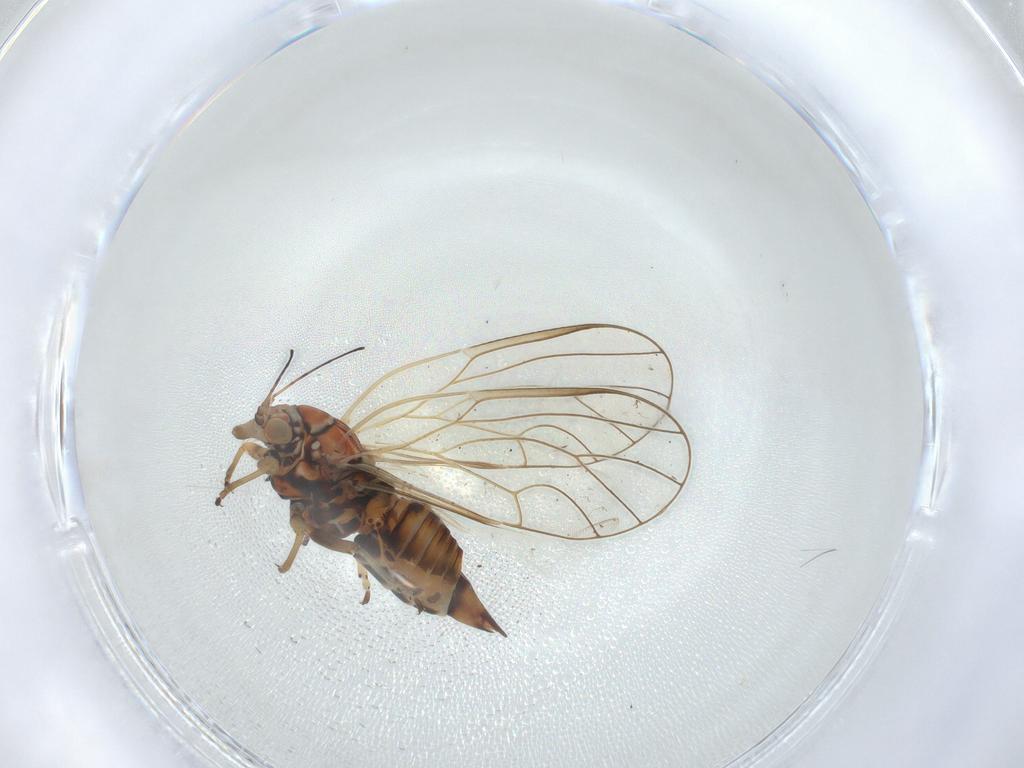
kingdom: Animalia
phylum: Arthropoda
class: Insecta
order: Hemiptera
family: Psyllidae
